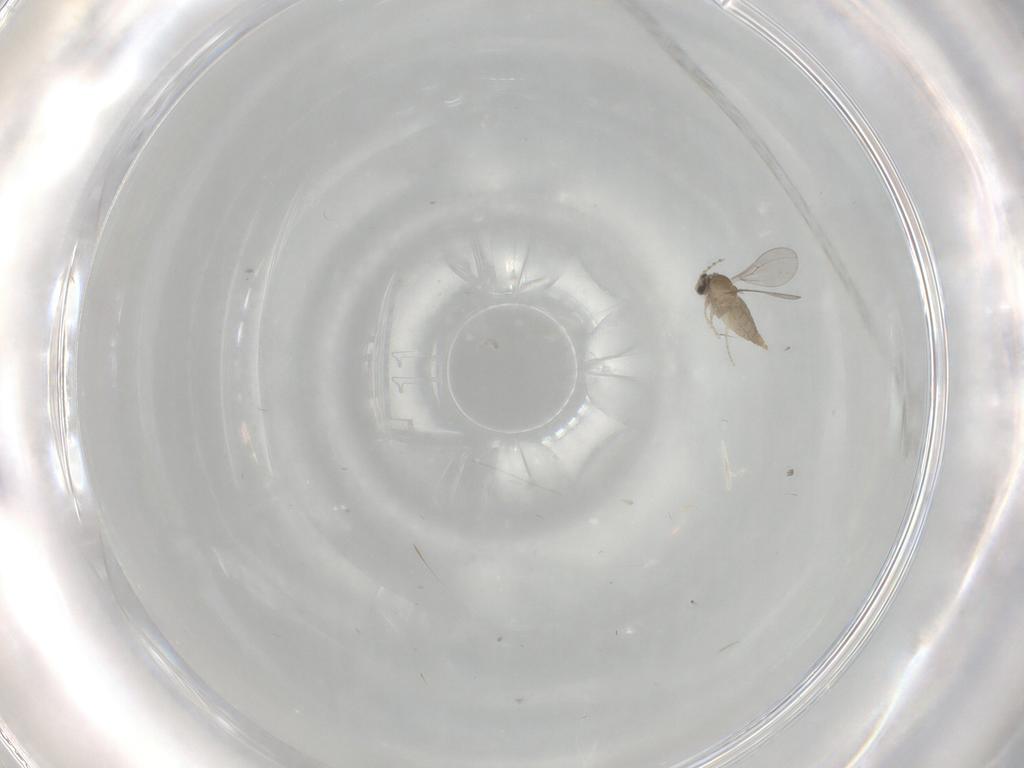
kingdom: Animalia
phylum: Arthropoda
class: Insecta
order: Diptera
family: Cecidomyiidae
